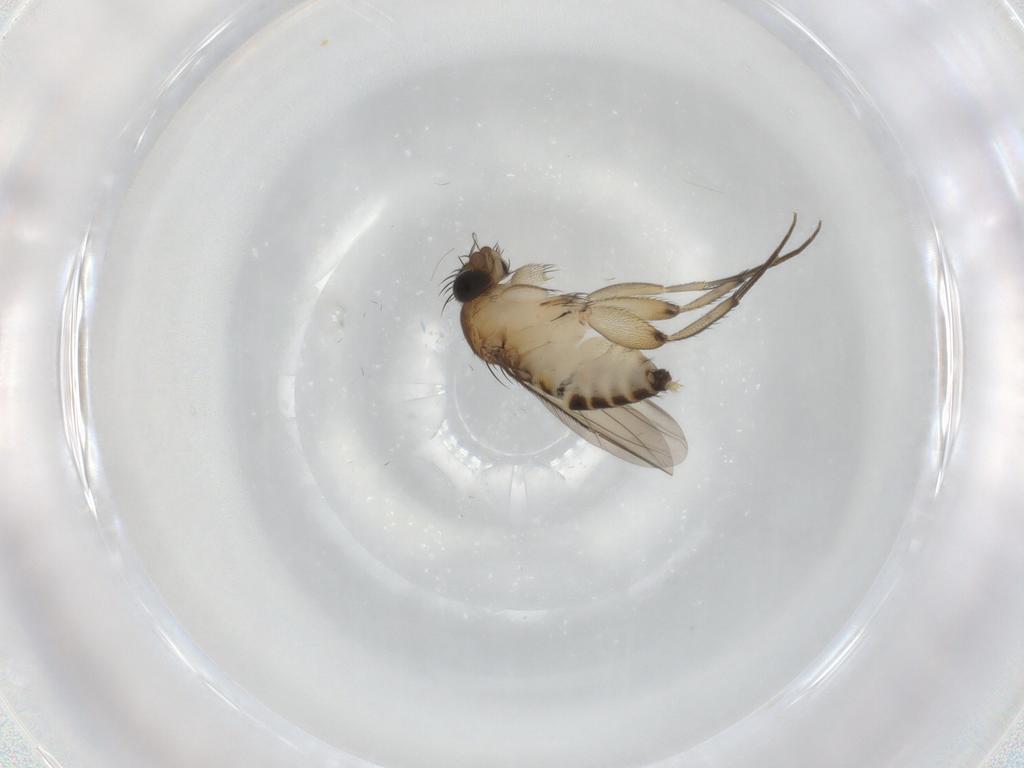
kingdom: Animalia
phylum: Arthropoda
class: Insecta
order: Diptera
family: Phoridae
